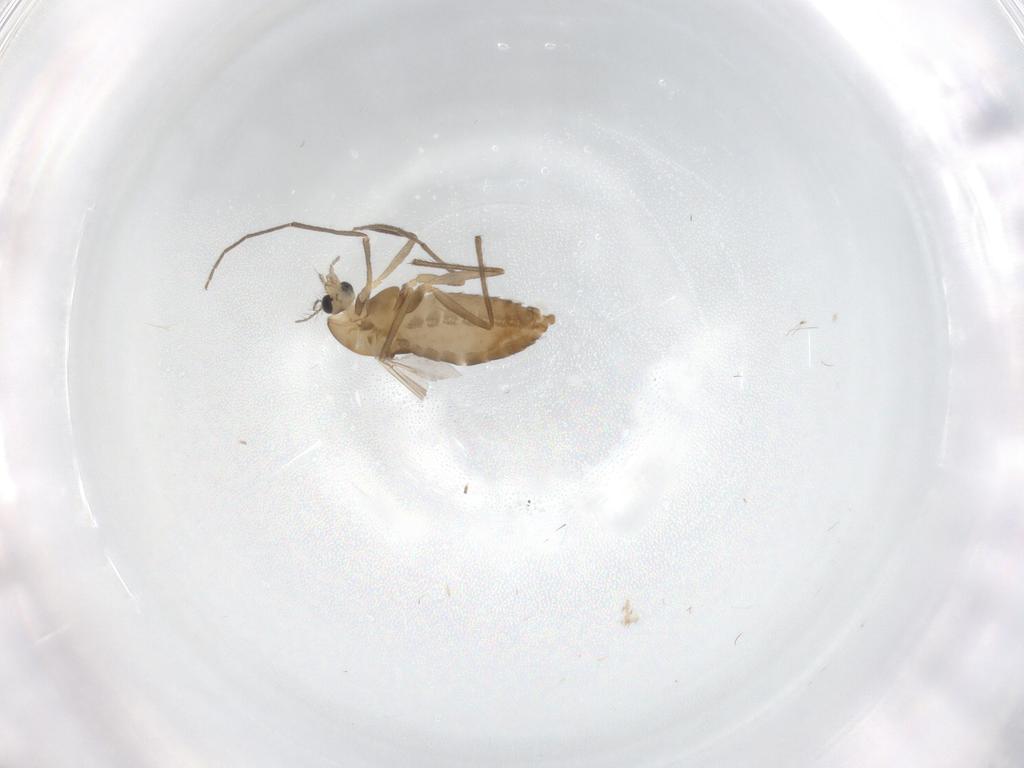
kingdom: Animalia
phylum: Arthropoda
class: Insecta
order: Diptera
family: Chironomidae
